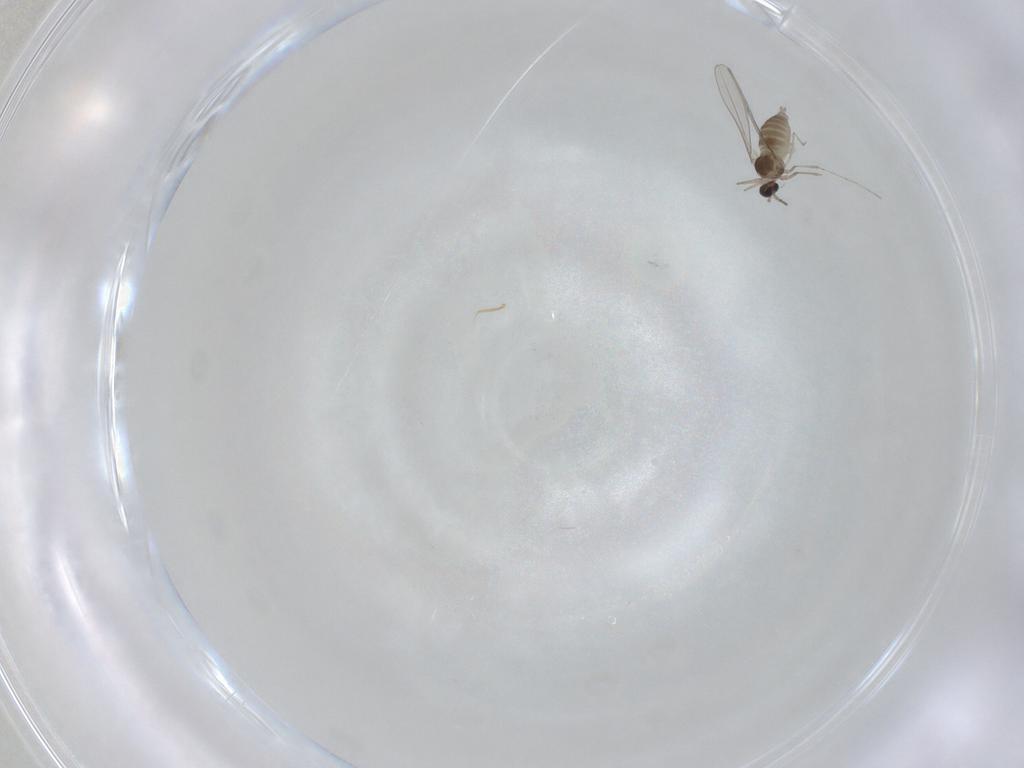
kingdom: Animalia
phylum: Arthropoda
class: Insecta
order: Diptera
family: Cecidomyiidae
